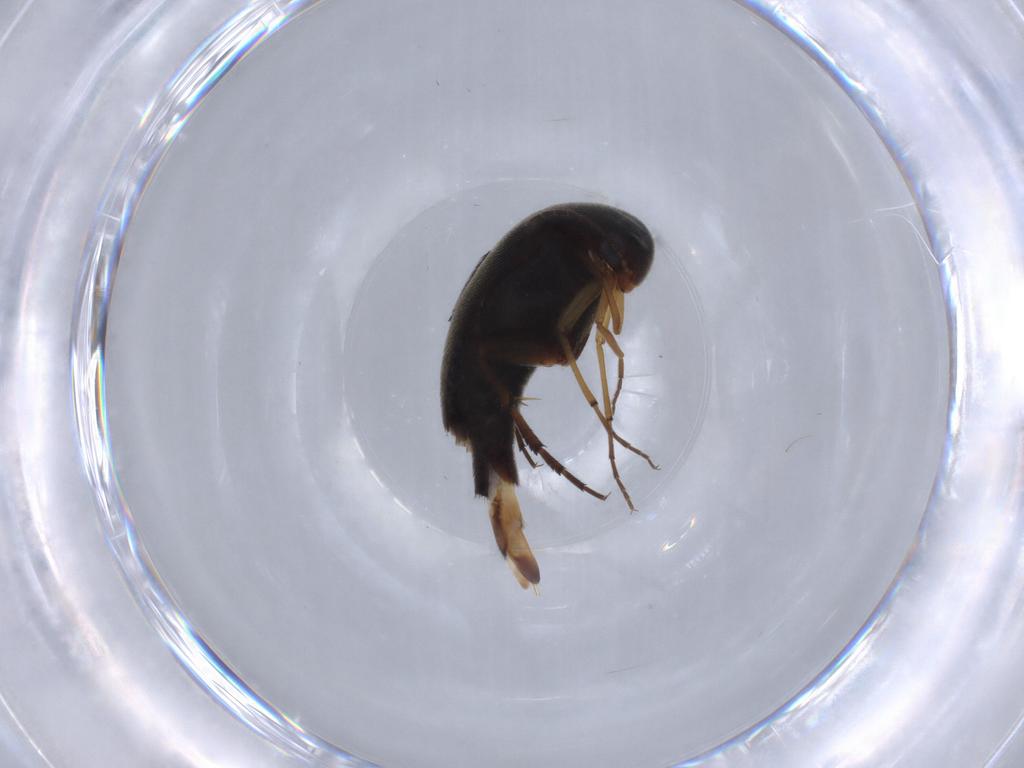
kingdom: Animalia
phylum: Arthropoda
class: Insecta
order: Coleoptera
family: Mordellidae
